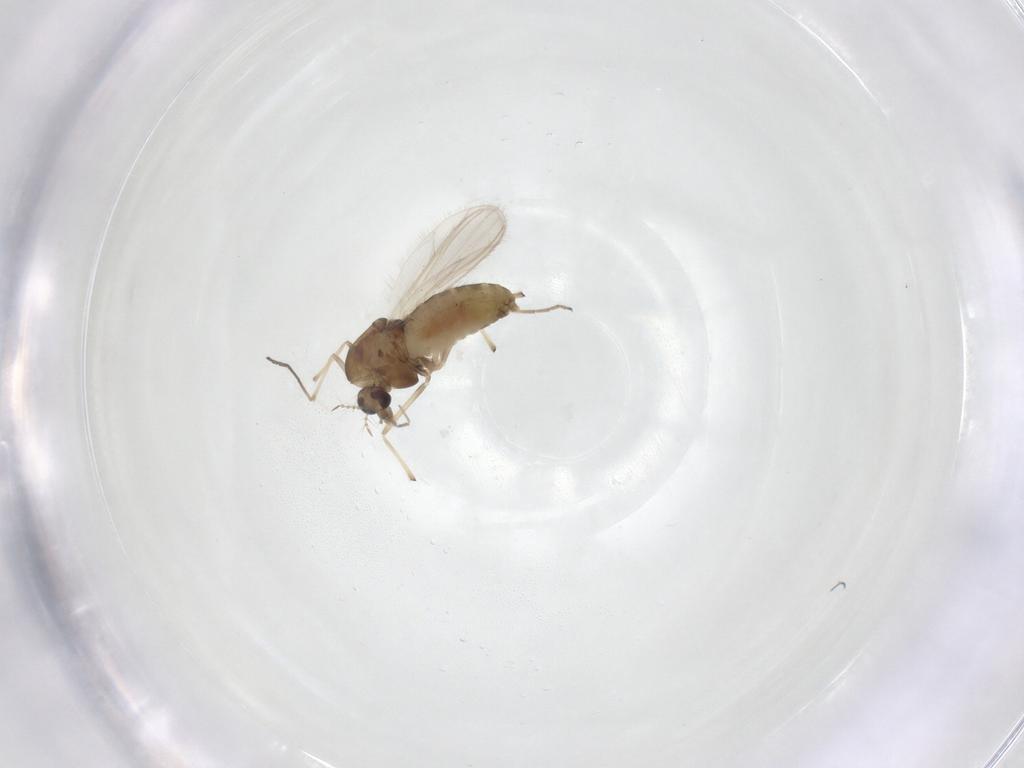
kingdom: Animalia
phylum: Arthropoda
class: Insecta
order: Diptera
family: Chironomidae
